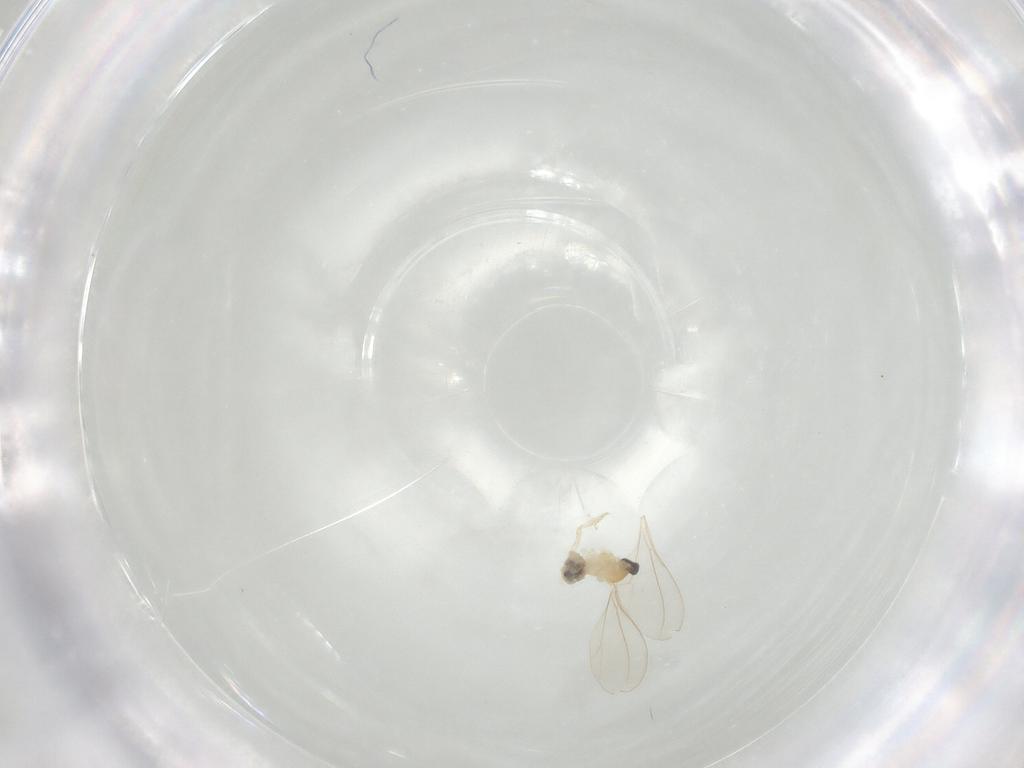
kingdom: Animalia
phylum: Arthropoda
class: Insecta
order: Diptera
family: Cecidomyiidae
